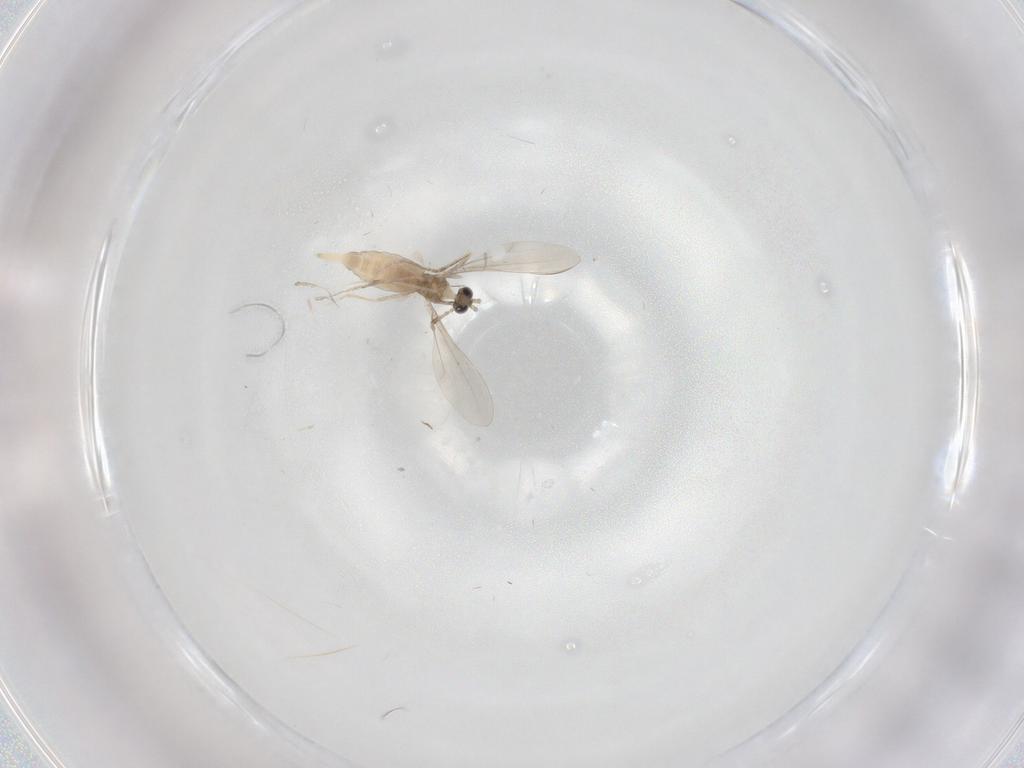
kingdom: Animalia
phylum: Arthropoda
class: Insecta
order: Diptera
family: Cecidomyiidae
